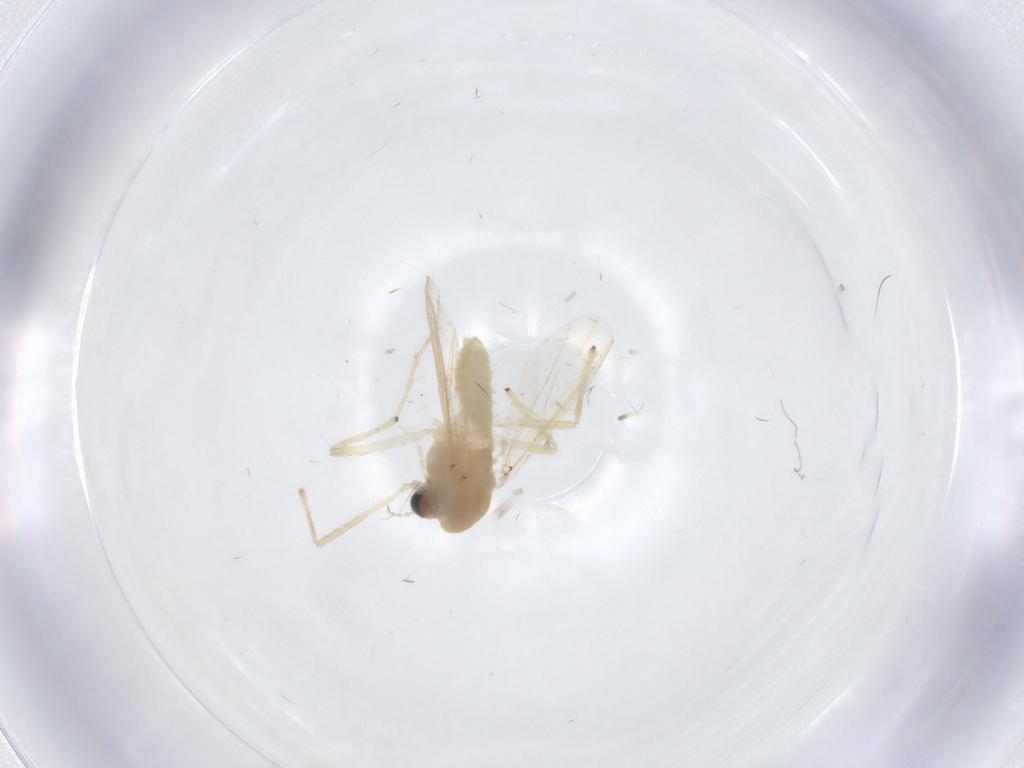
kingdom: Animalia
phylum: Arthropoda
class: Insecta
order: Diptera
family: Chironomidae
